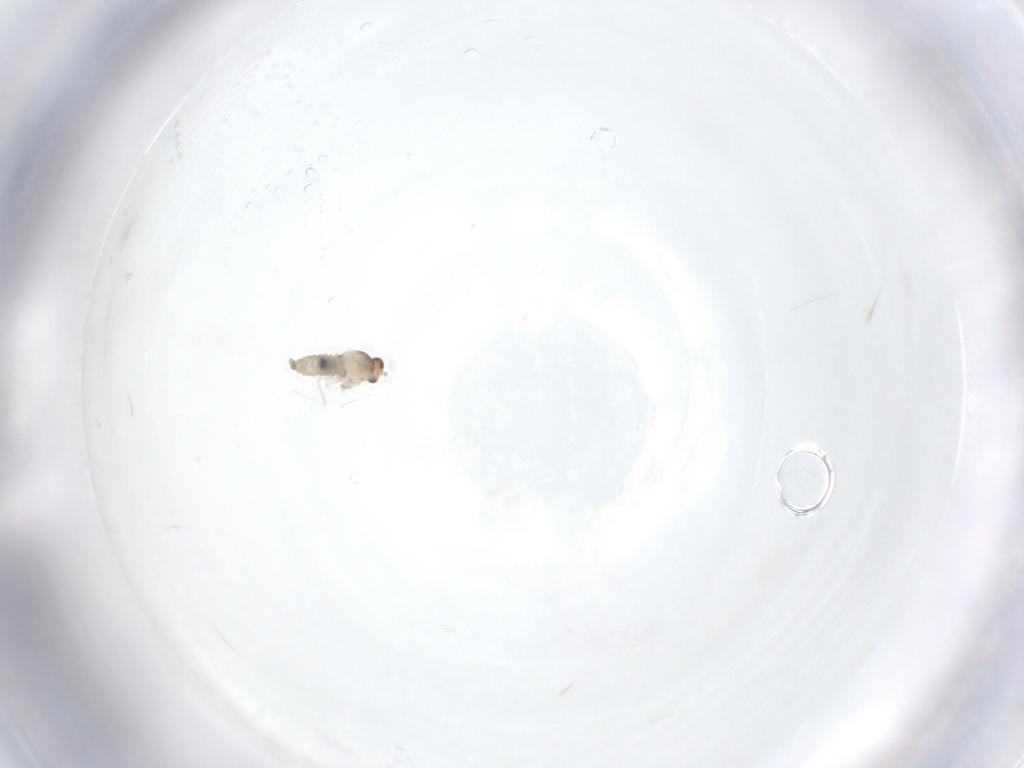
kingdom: Animalia
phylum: Arthropoda
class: Insecta
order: Diptera
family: Cecidomyiidae
